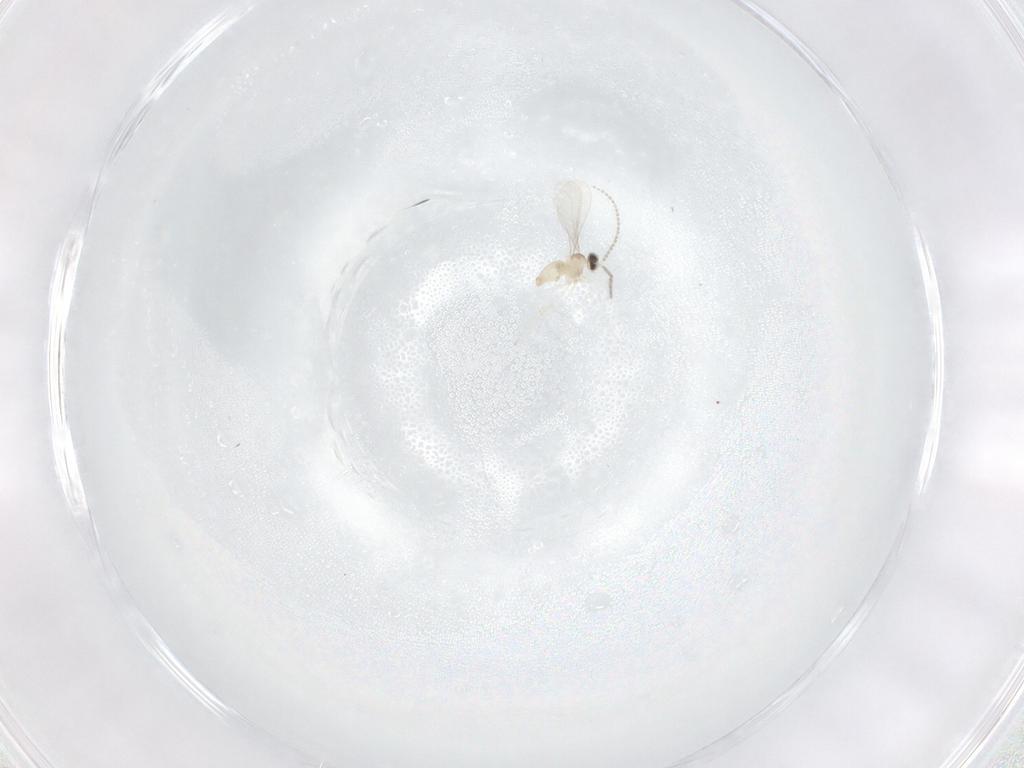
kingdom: Animalia
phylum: Arthropoda
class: Insecta
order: Diptera
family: Cecidomyiidae
